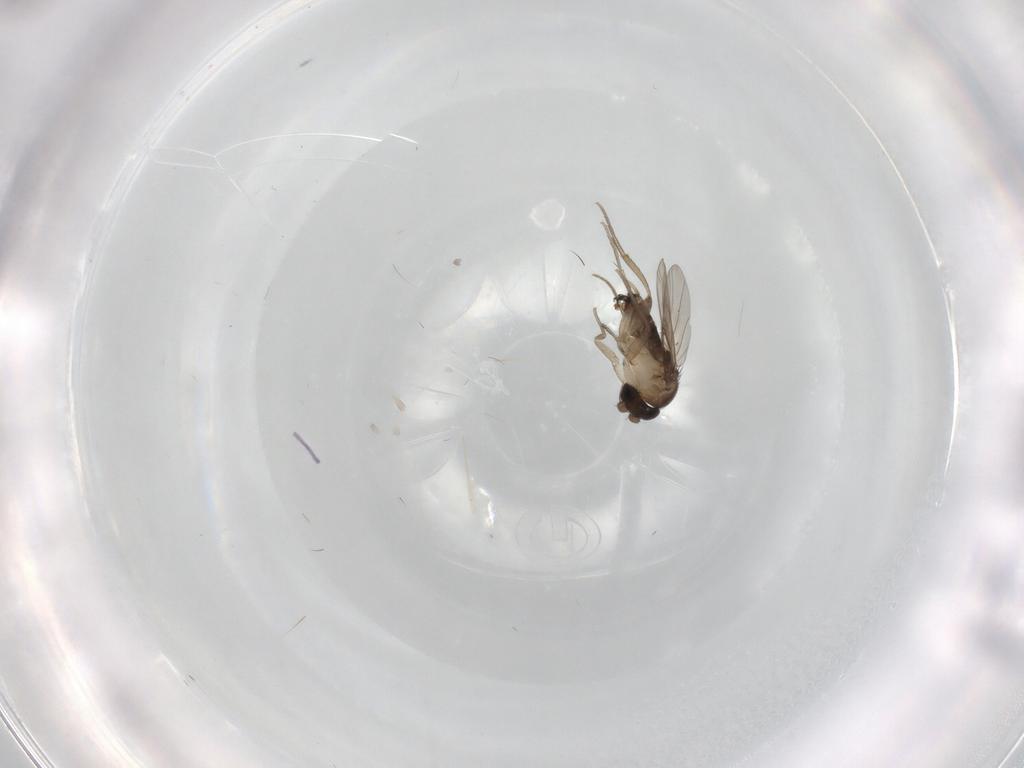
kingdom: Animalia
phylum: Arthropoda
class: Insecta
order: Diptera
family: Phoridae
